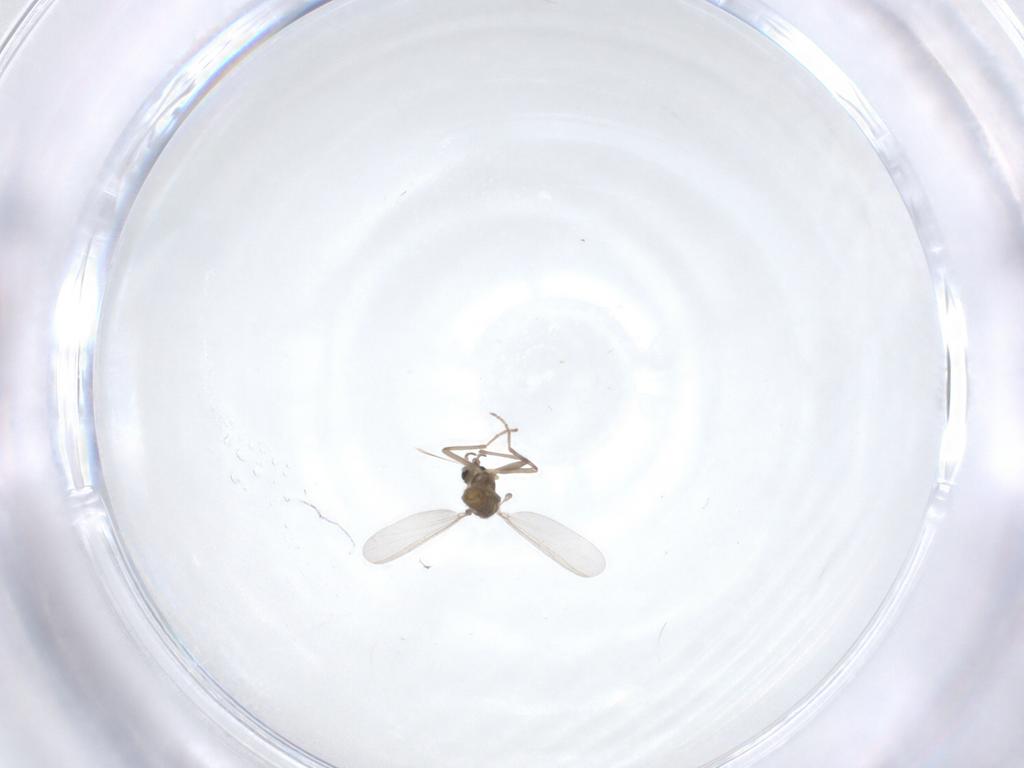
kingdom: Animalia
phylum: Arthropoda
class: Insecta
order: Diptera
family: Chironomidae
